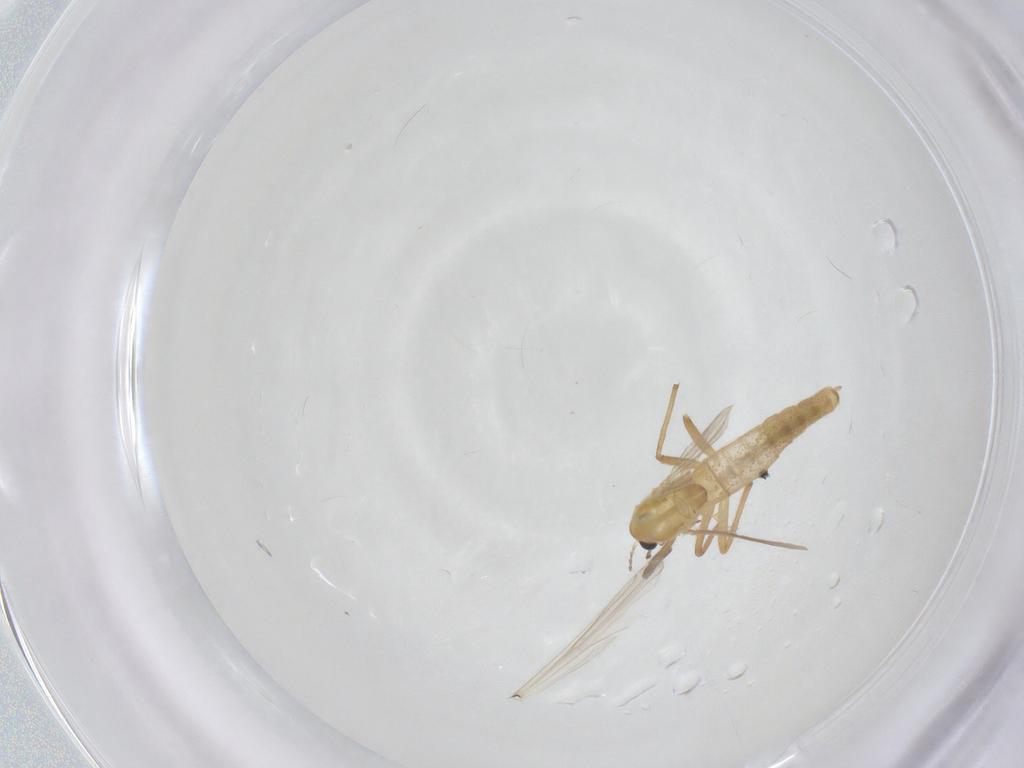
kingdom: Animalia
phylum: Arthropoda
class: Insecta
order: Diptera
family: Chironomidae
